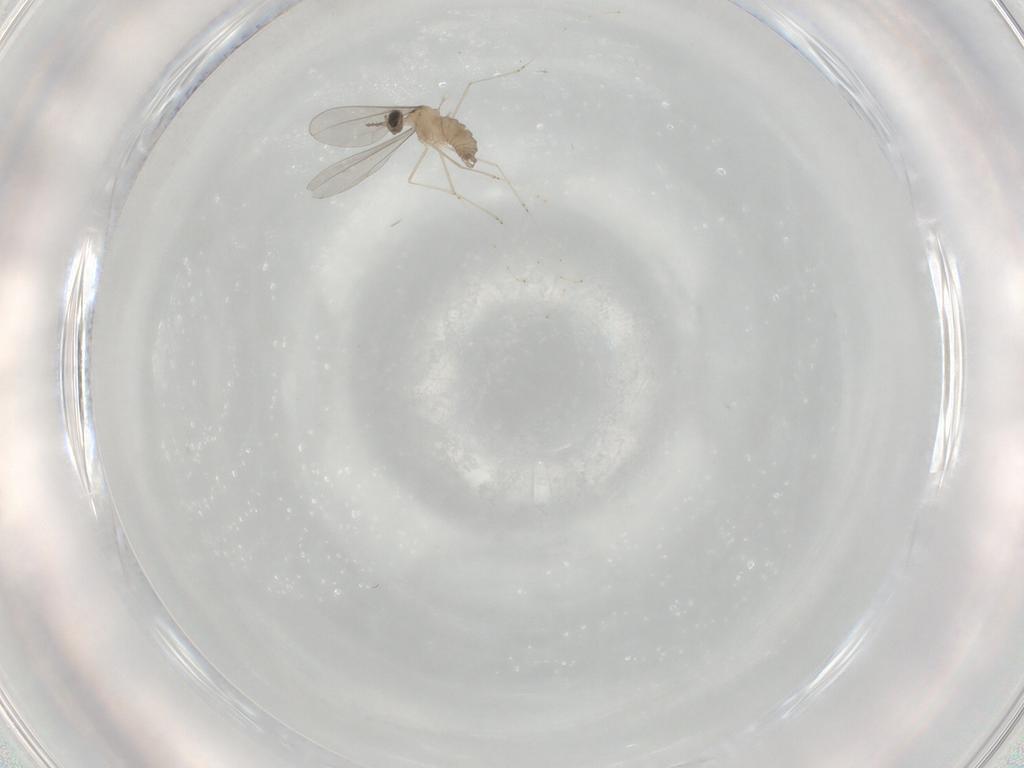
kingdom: Animalia
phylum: Arthropoda
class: Insecta
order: Diptera
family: Cecidomyiidae
